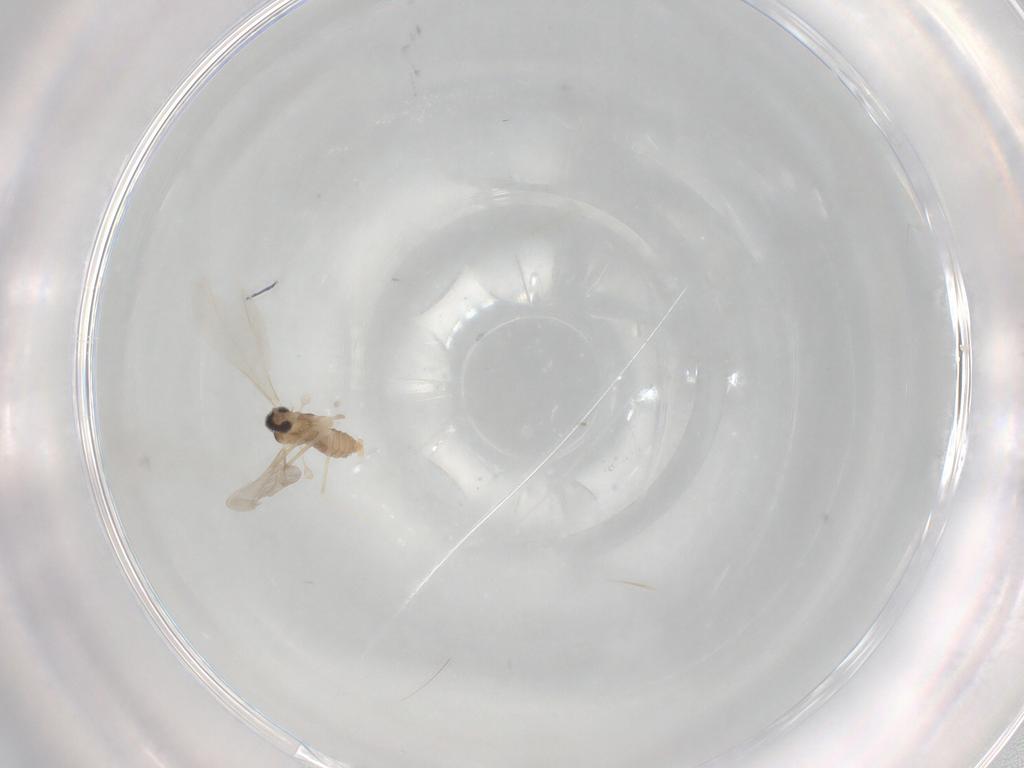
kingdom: Animalia
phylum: Arthropoda
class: Insecta
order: Diptera
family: Cecidomyiidae
